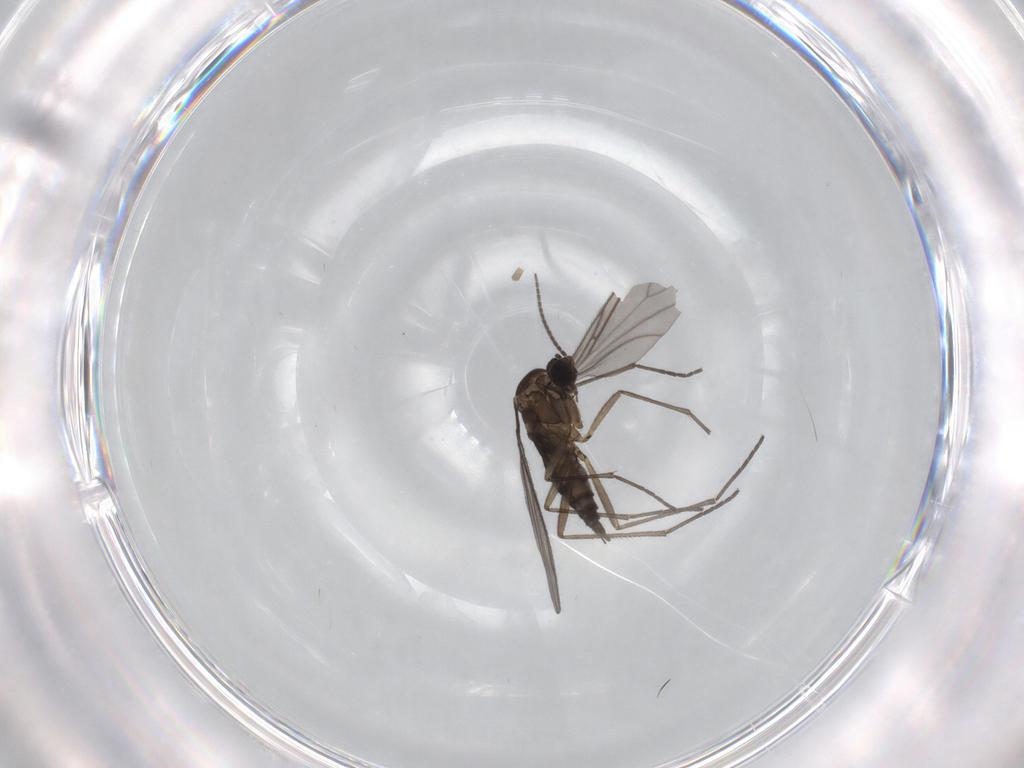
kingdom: Animalia
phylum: Arthropoda
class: Insecta
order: Diptera
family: Sciaridae
